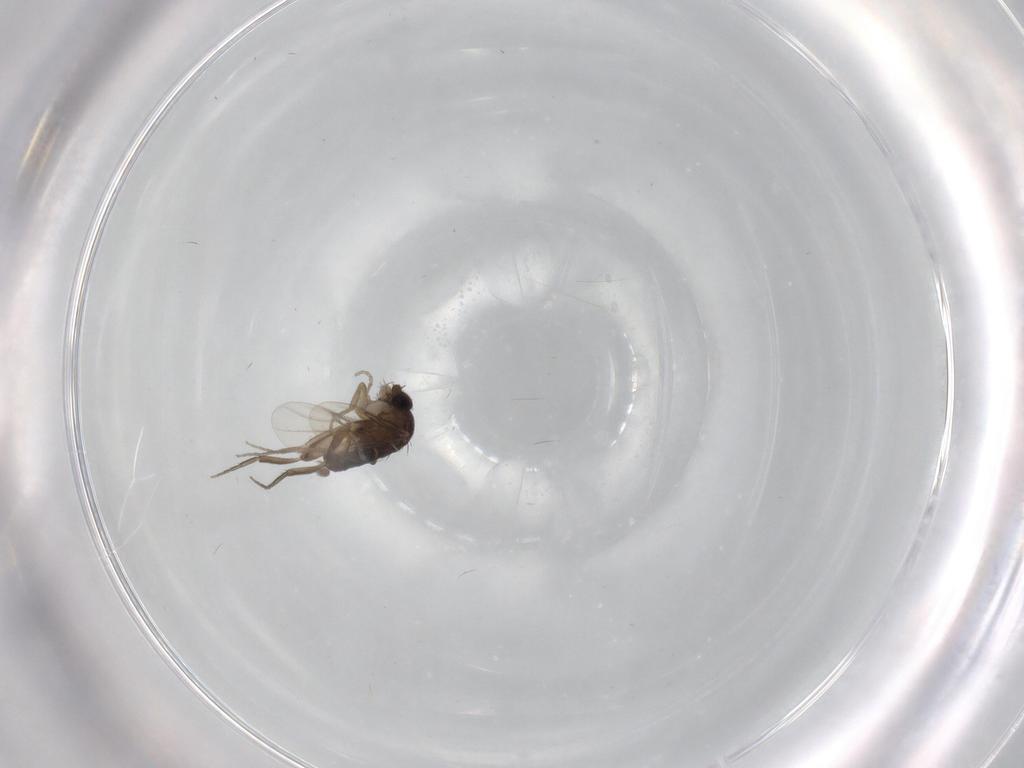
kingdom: Animalia
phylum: Arthropoda
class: Insecta
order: Diptera
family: Phoridae
